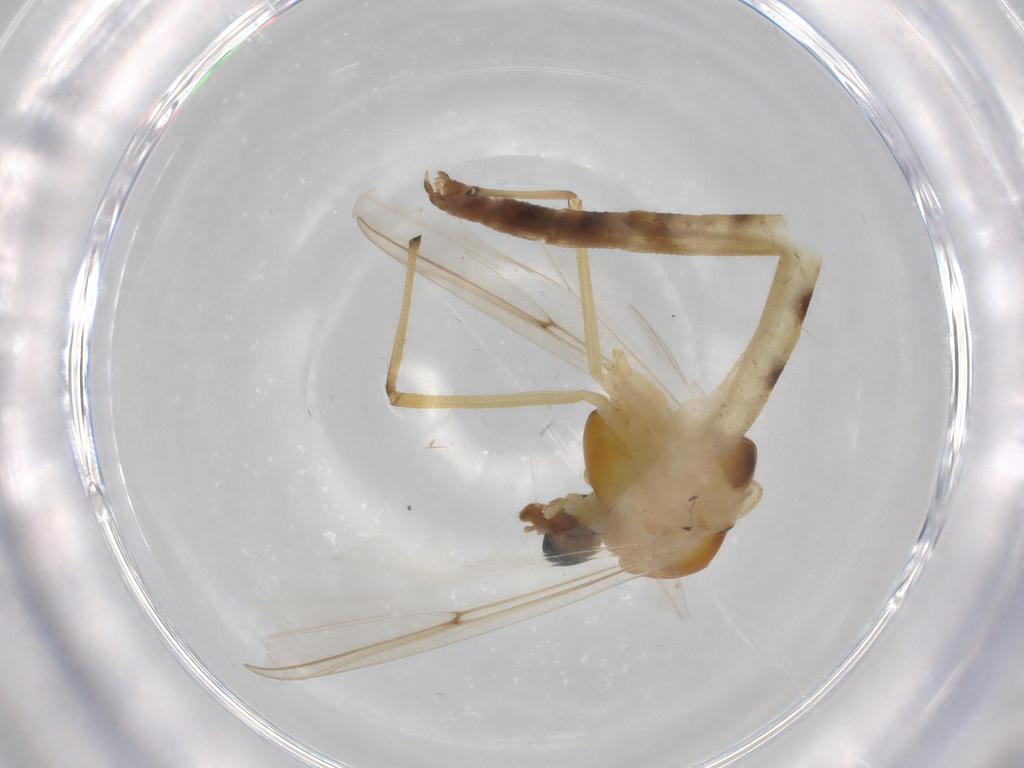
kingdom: Animalia
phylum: Arthropoda
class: Insecta
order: Diptera
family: Chironomidae
